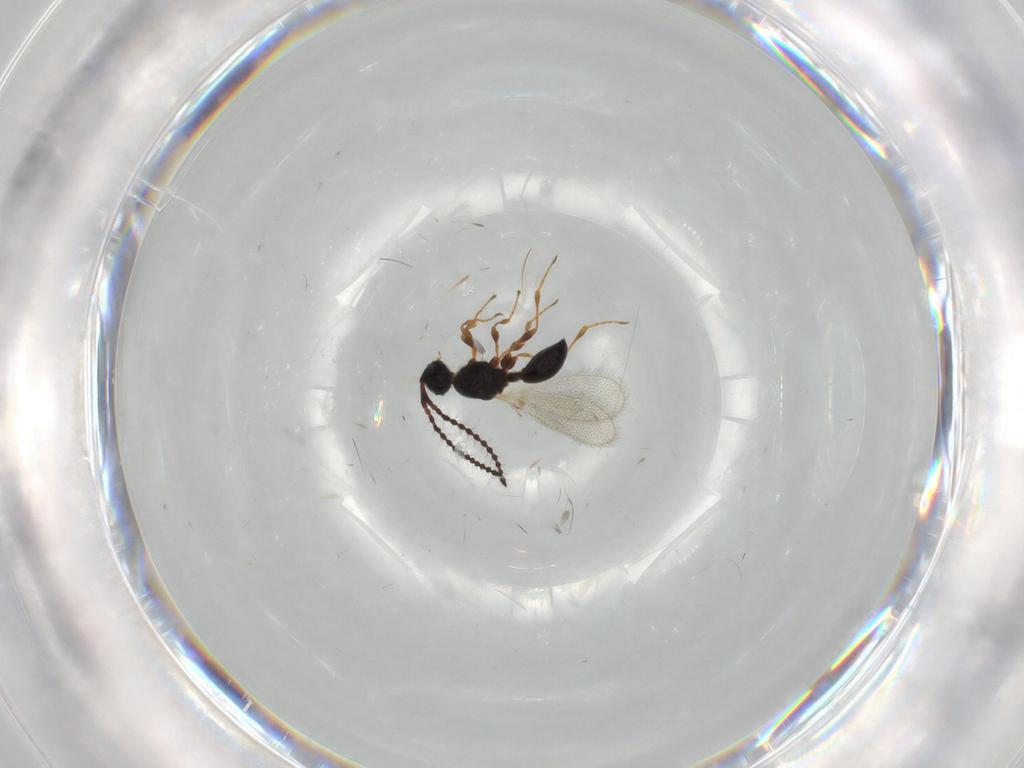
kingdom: Animalia
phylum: Arthropoda
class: Insecta
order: Hymenoptera
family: Diapriidae
